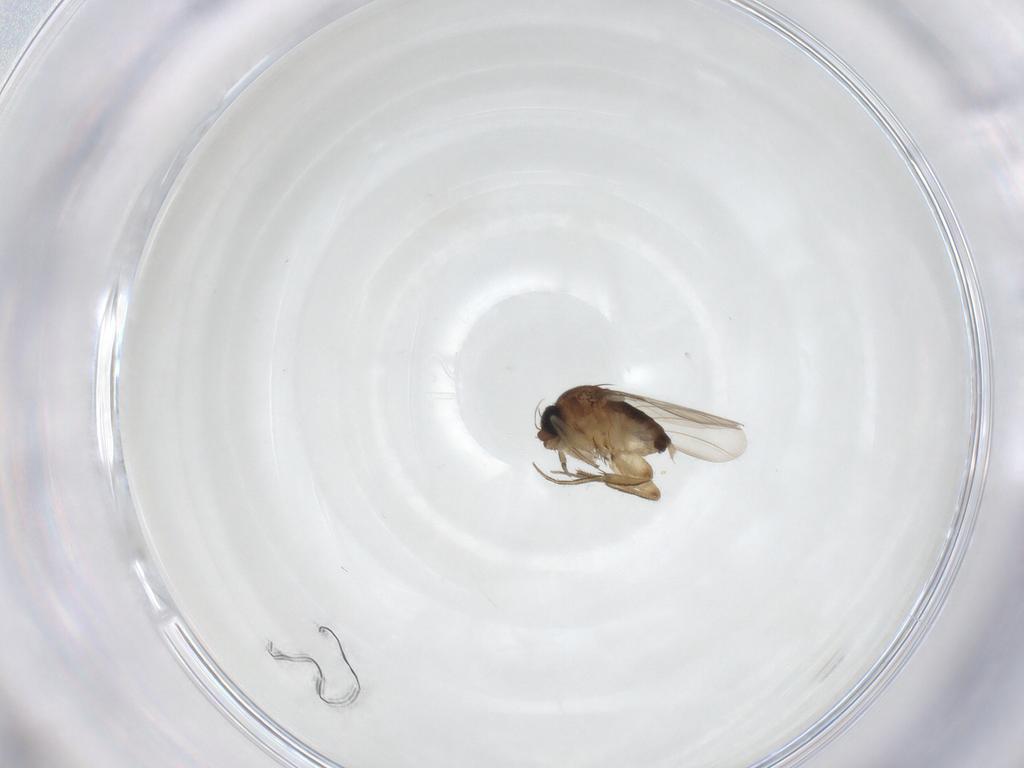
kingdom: Animalia
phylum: Arthropoda
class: Insecta
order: Diptera
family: Phoridae
